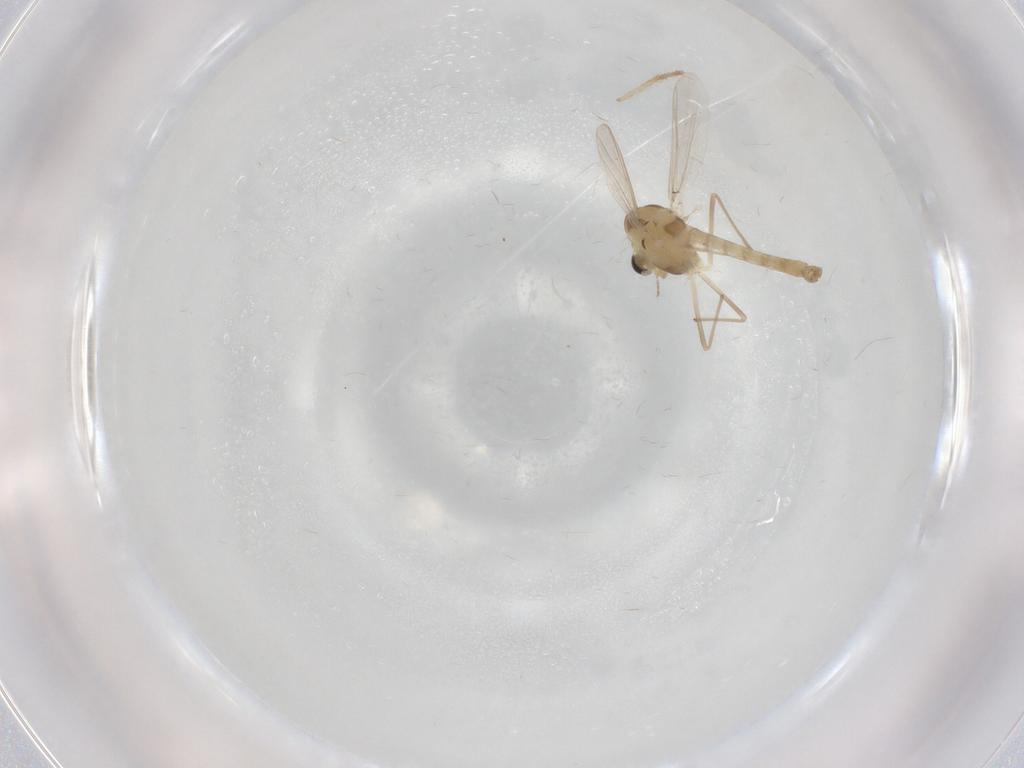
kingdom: Animalia
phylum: Arthropoda
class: Insecta
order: Diptera
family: Chironomidae
